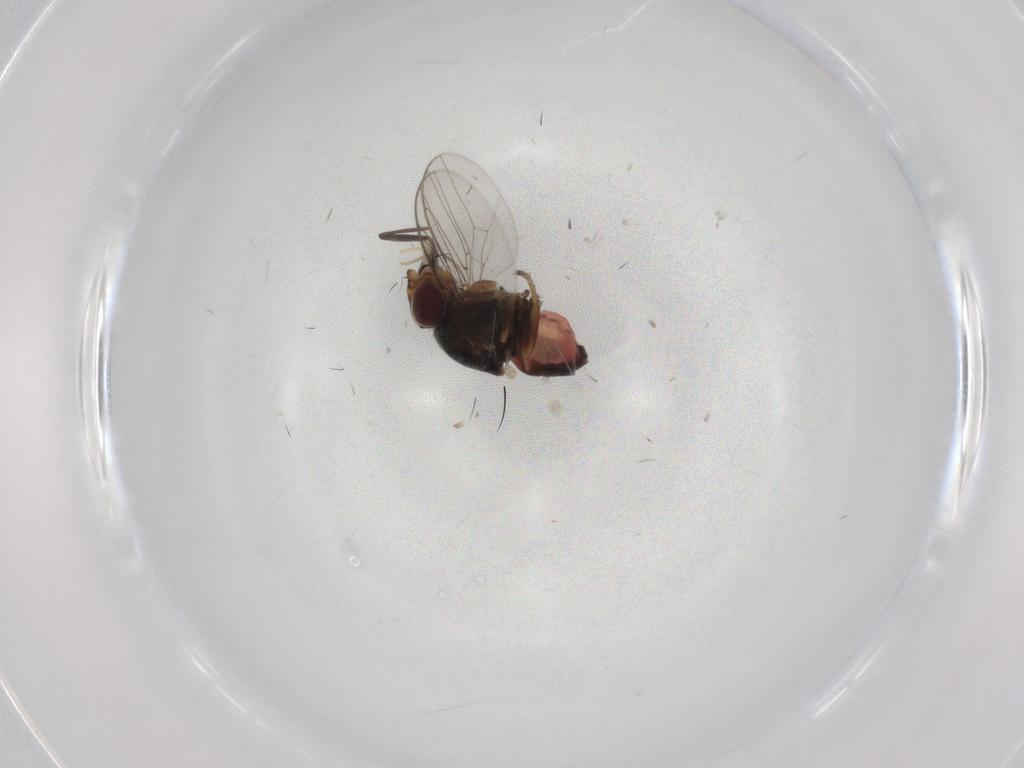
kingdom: Animalia
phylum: Arthropoda
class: Insecta
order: Diptera
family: Chloropidae
